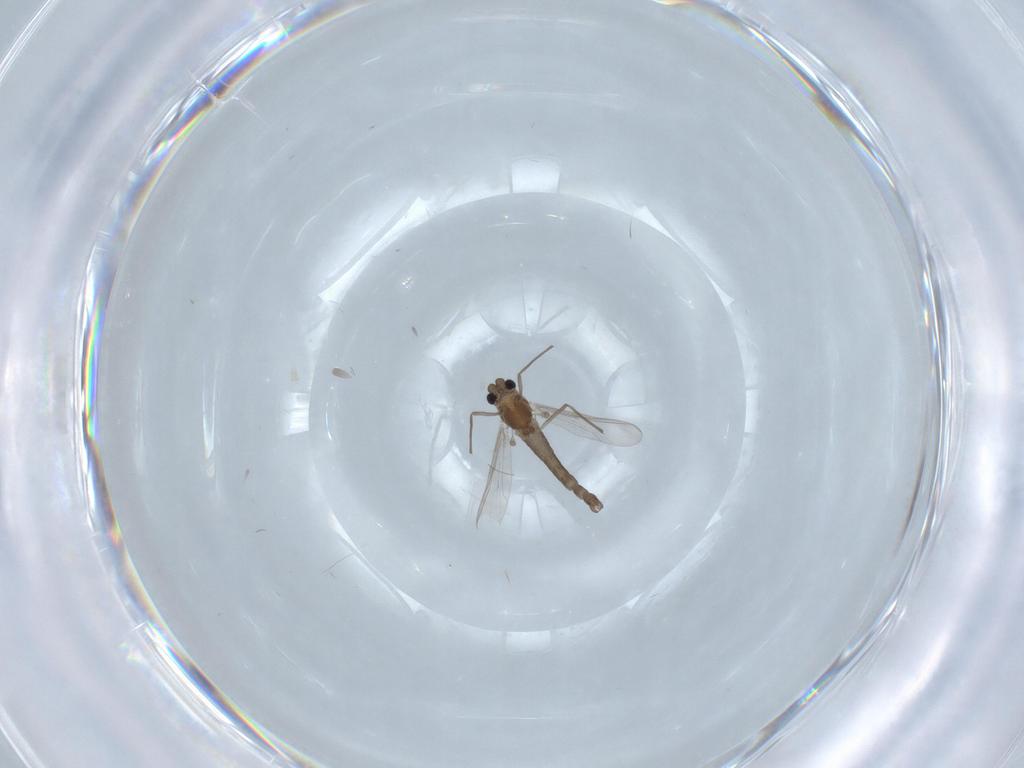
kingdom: Animalia
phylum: Arthropoda
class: Insecta
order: Diptera
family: Chironomidae
